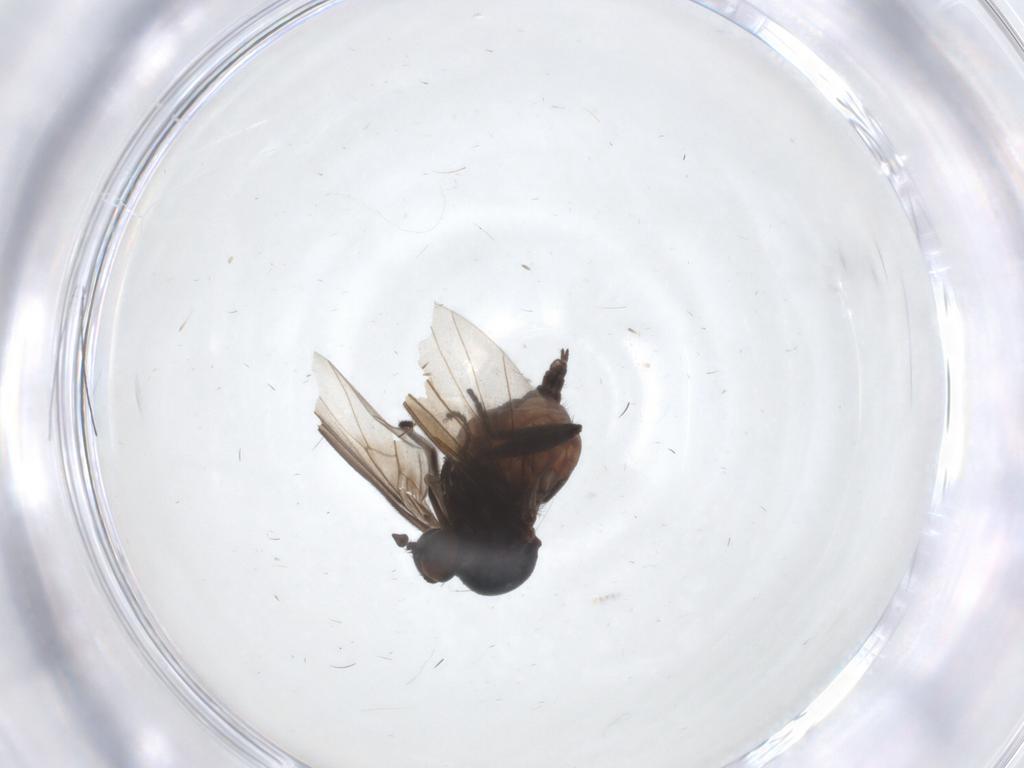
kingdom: Animalia
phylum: Arthropoda
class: Insecta
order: Diptera
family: Empididae
